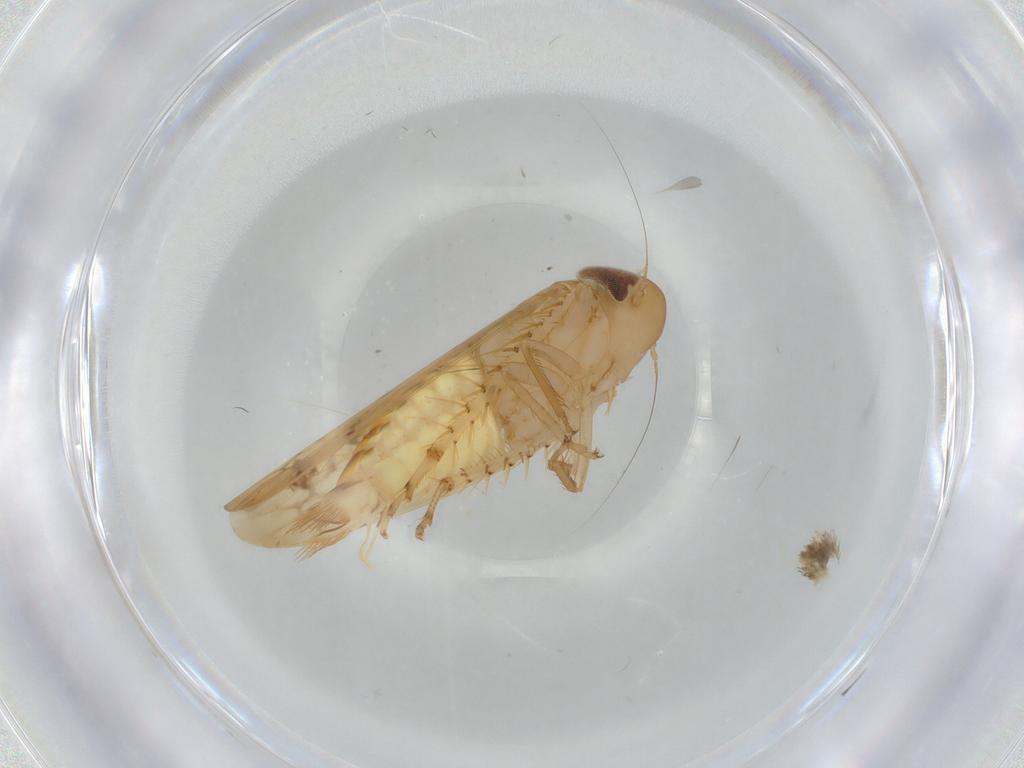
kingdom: Animalia
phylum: Arthropoda
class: Insecta
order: Hemiptera
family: Cicadellidae
